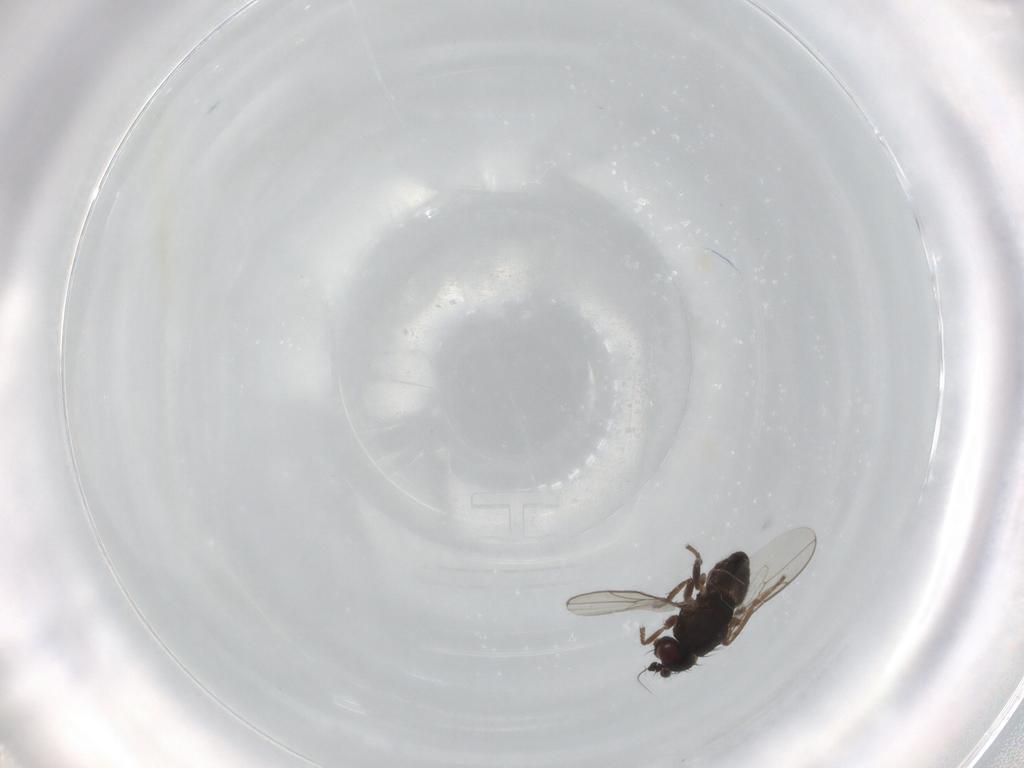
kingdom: Animalia
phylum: Arthropoda
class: Insecta
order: Diptera
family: Sphaeroceridae
